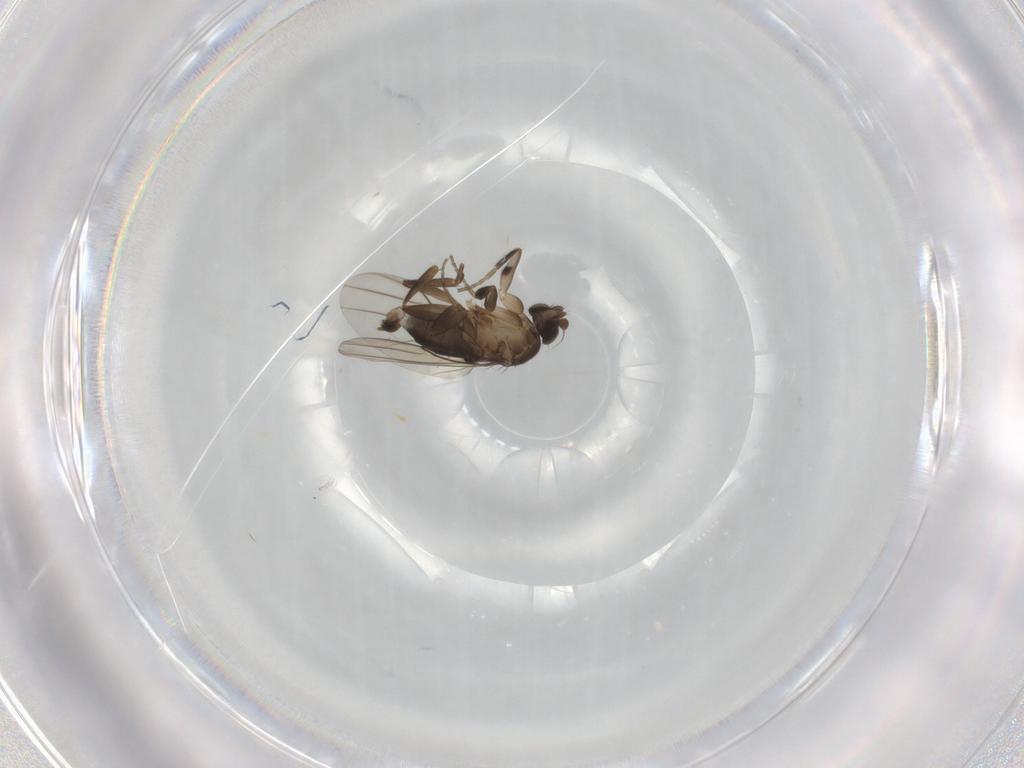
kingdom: Animalia
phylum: Arthropoda
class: Insecta
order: Diptera
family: Phoridae
